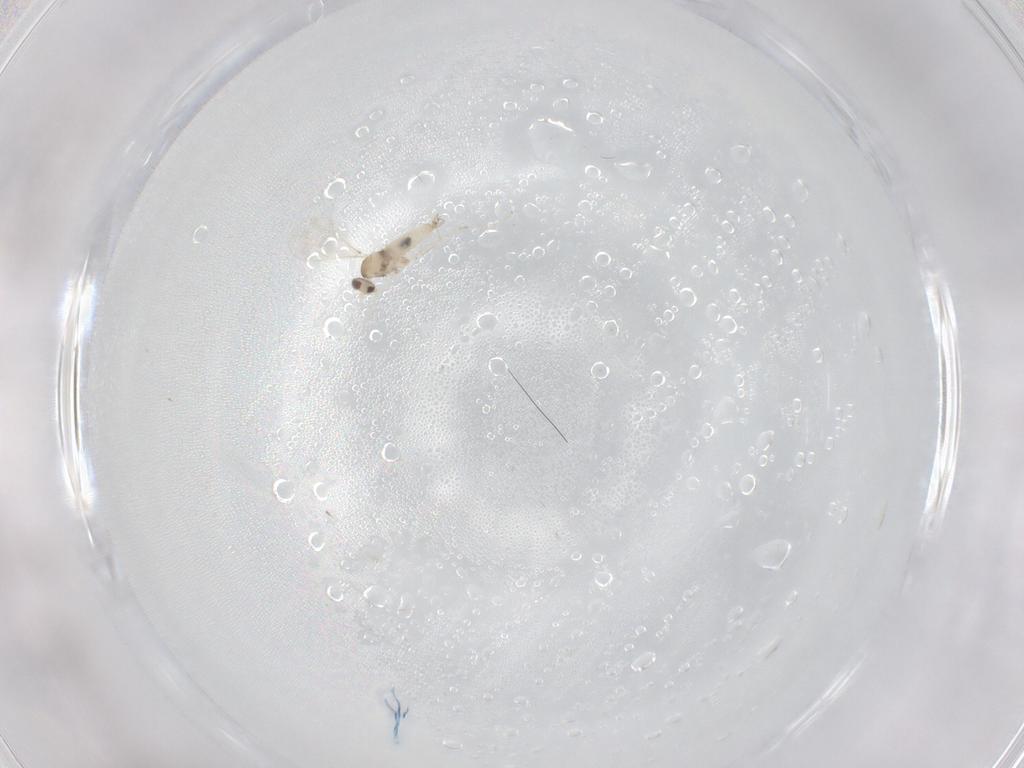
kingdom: Animalia
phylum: Arthropoda
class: Insecta
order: Diptera
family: Cecidomyiidae
